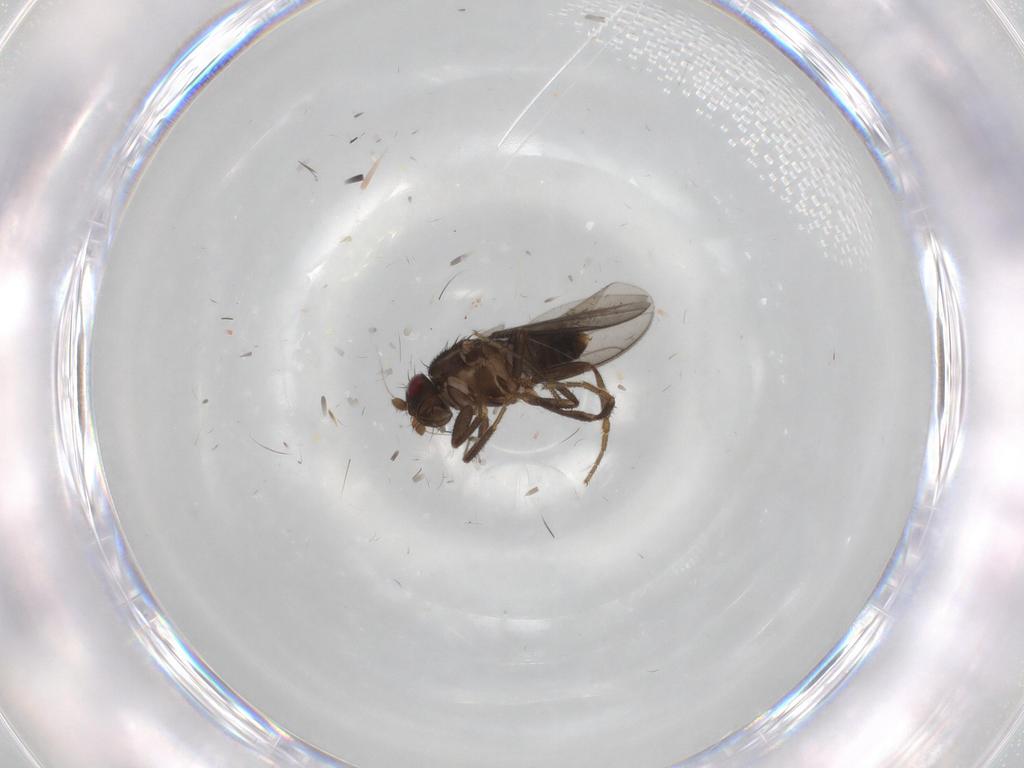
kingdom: Animalia
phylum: Arthropoda
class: Insecta
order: Diptera
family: Sphaeroceridae
